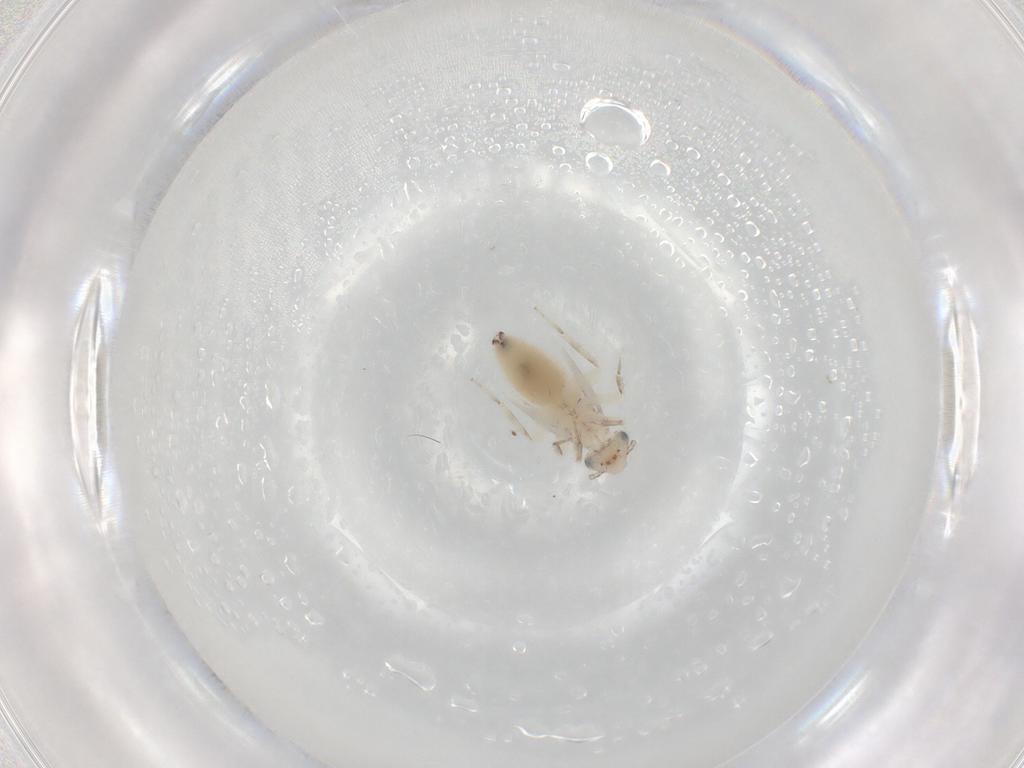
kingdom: Animalia
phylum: Arthropoda
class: Insecta
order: Psocodea
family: Lepidopsocidae
